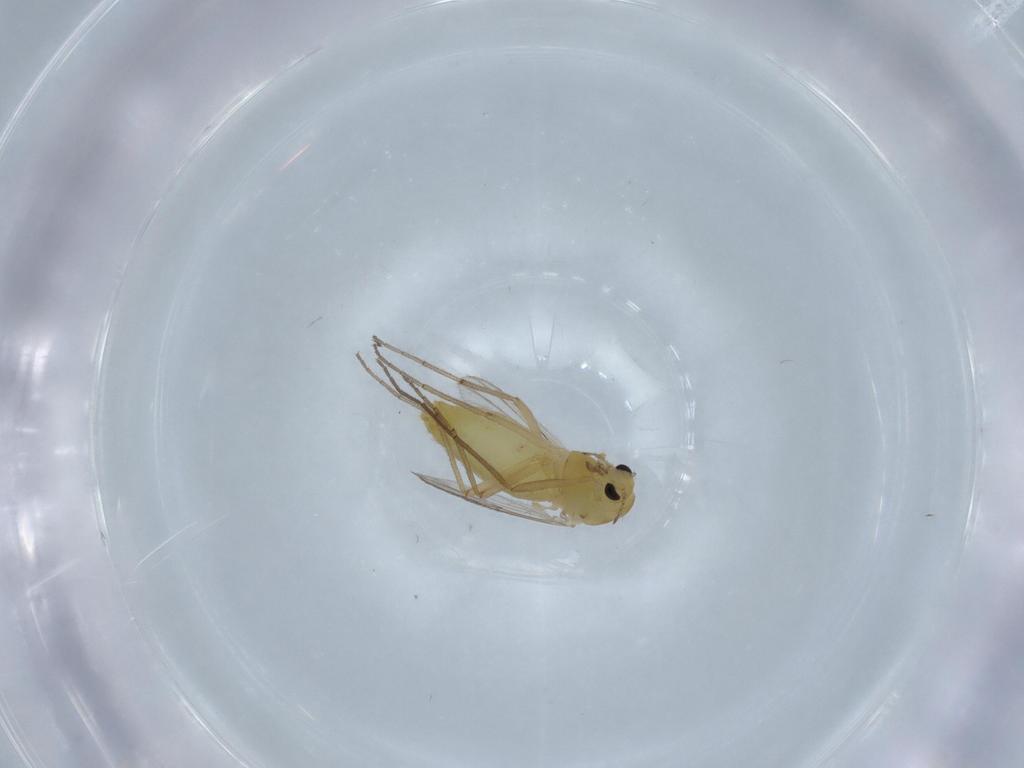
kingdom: Animalia
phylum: Arthropoda
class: Insecta
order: Diptera
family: Chironomidae
